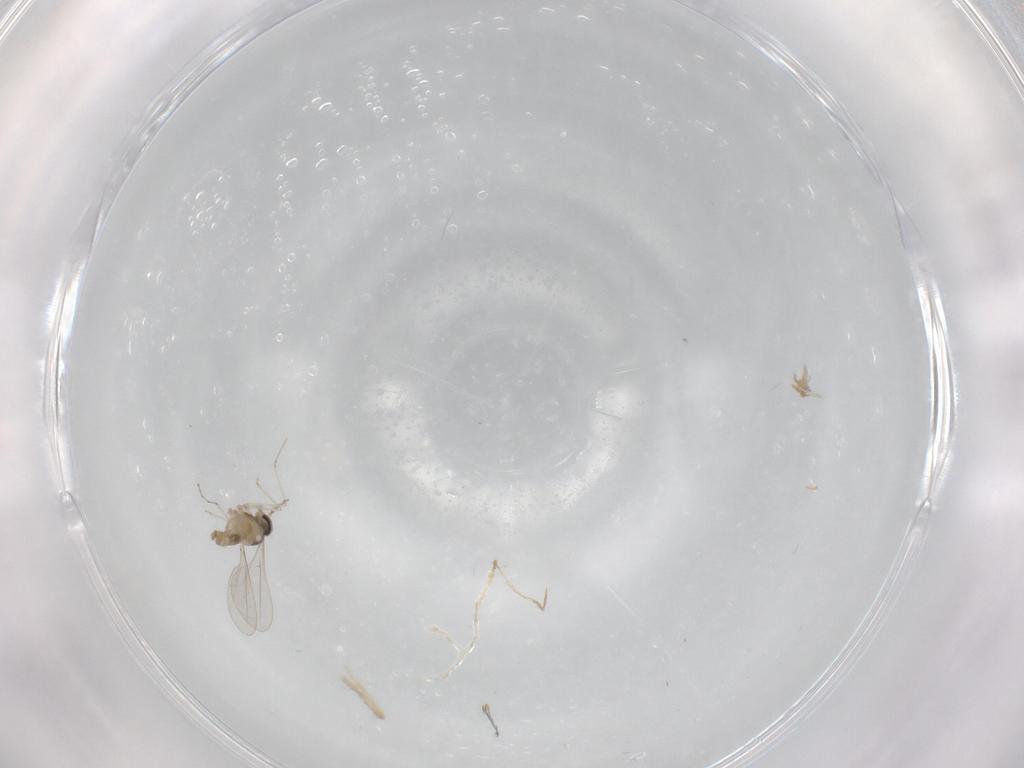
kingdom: Animalia
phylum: Arthropoda
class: Insecta
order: Diptera
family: Cecidomyiidae
